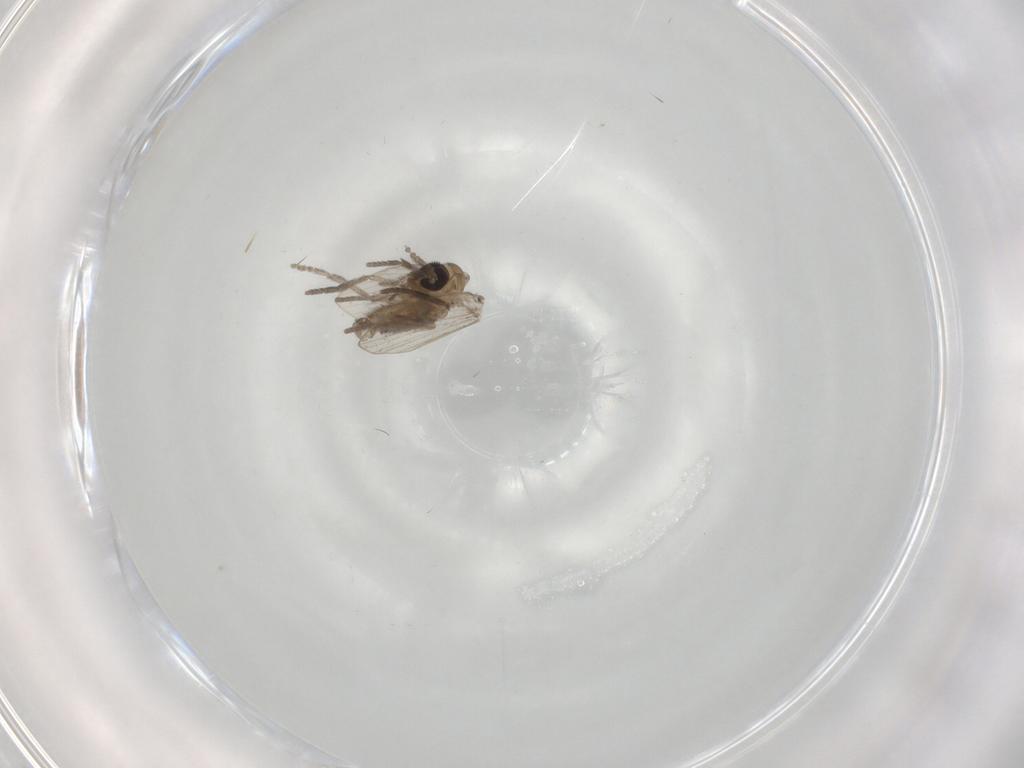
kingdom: Animalia
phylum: Arthropoda
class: Insecta
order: Diptera
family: Psychodidae
